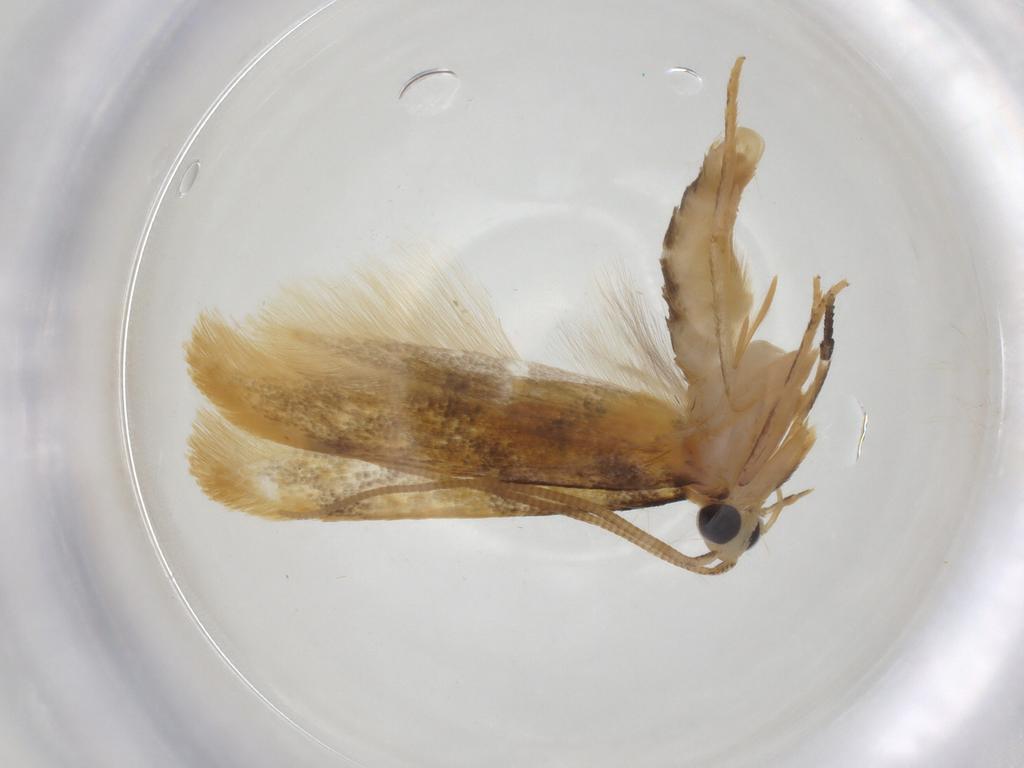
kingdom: Animalia
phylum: Arthropoda
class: Insecta
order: Lepidoptera
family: Tineidae
